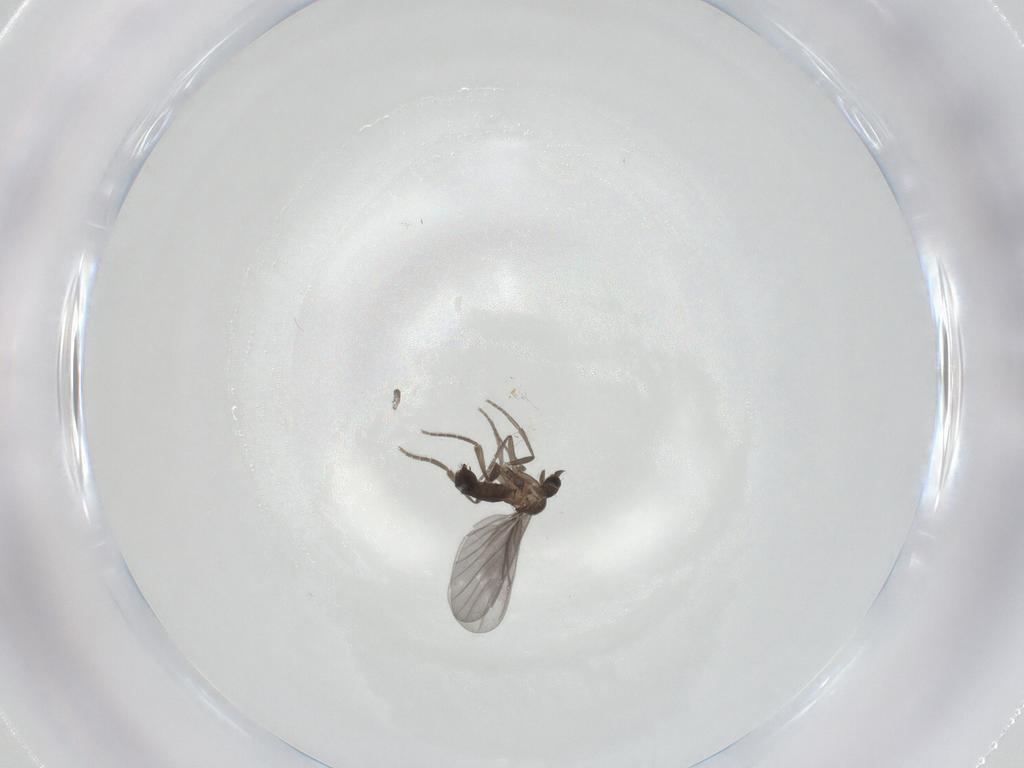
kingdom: Animalia
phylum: Arthropoda
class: Insecta
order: Diptera
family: Phoridae
